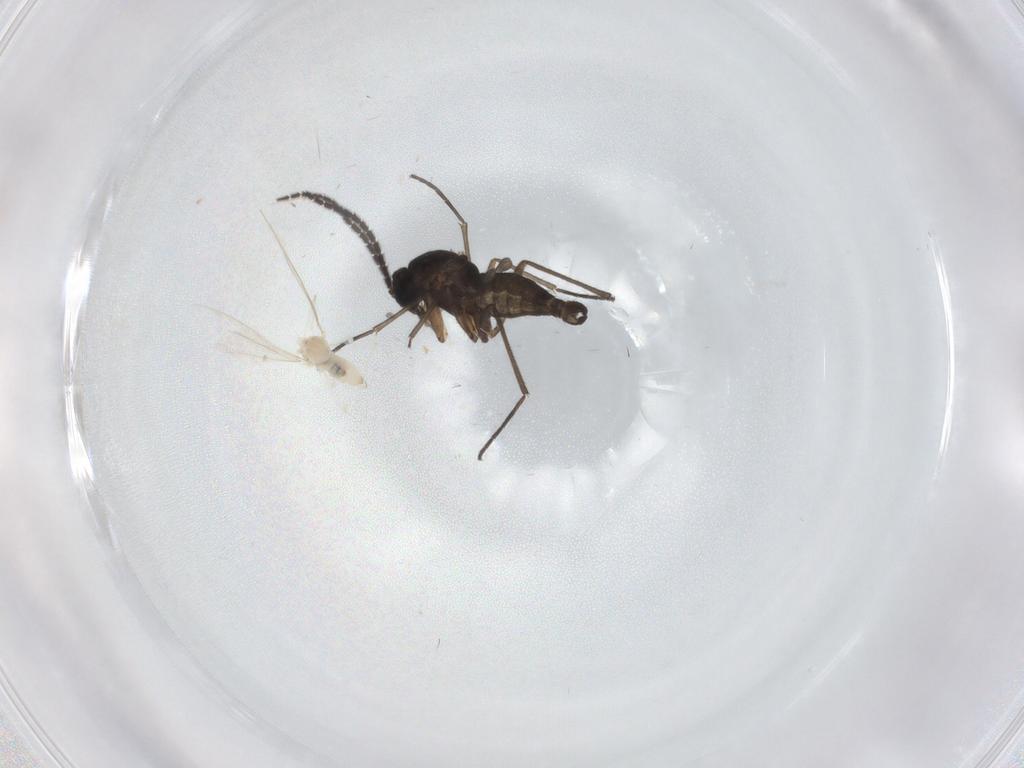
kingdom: Animalia
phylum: Arthropoda
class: Insecta
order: Diptera
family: Sciaridae
